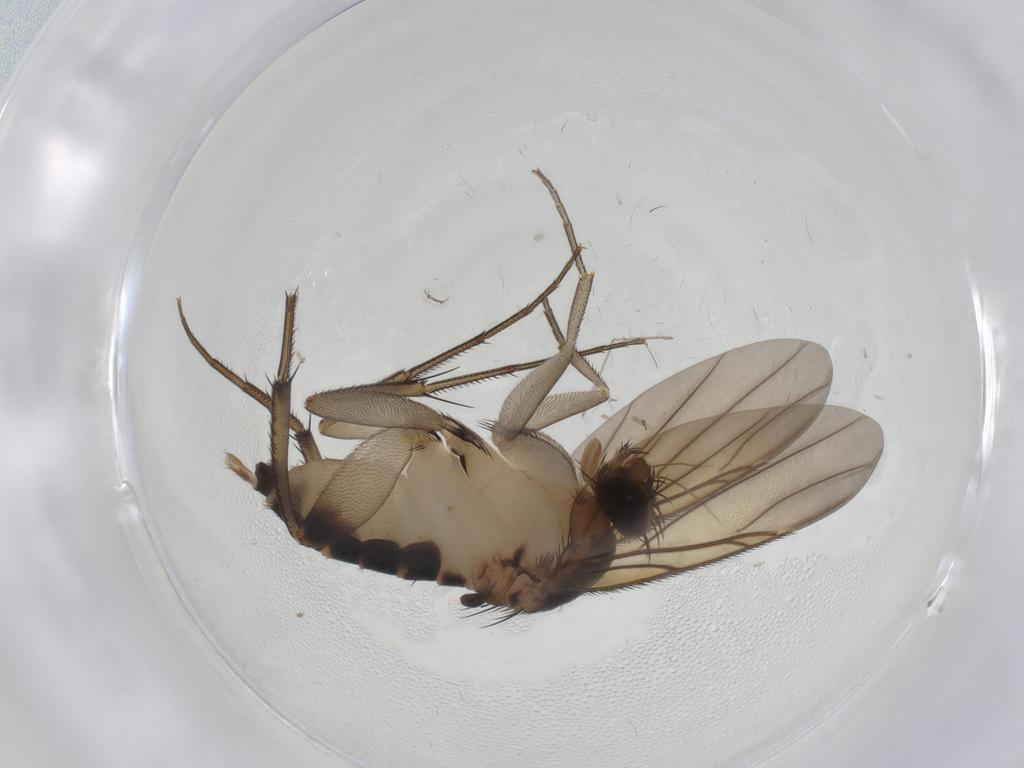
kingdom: Animalia
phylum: Arthropoda
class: Insecta
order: Diptera
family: Phoridae
